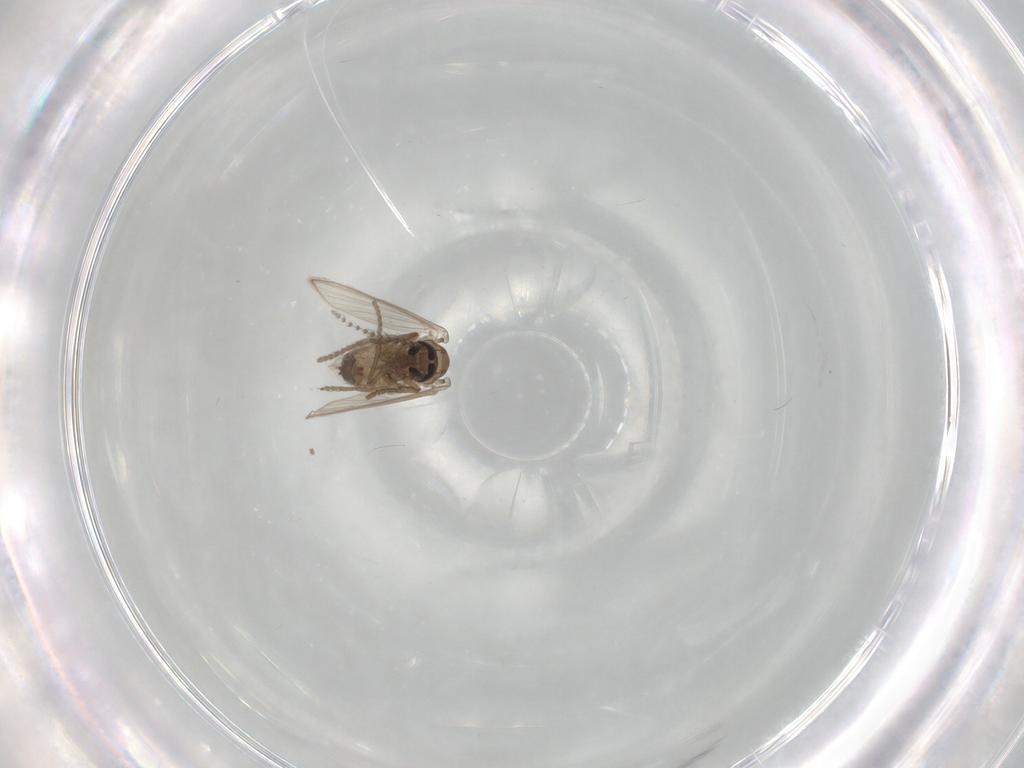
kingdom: Animalia
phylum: Arthropoda
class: Insecta
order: Diptera
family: Psychodidae
